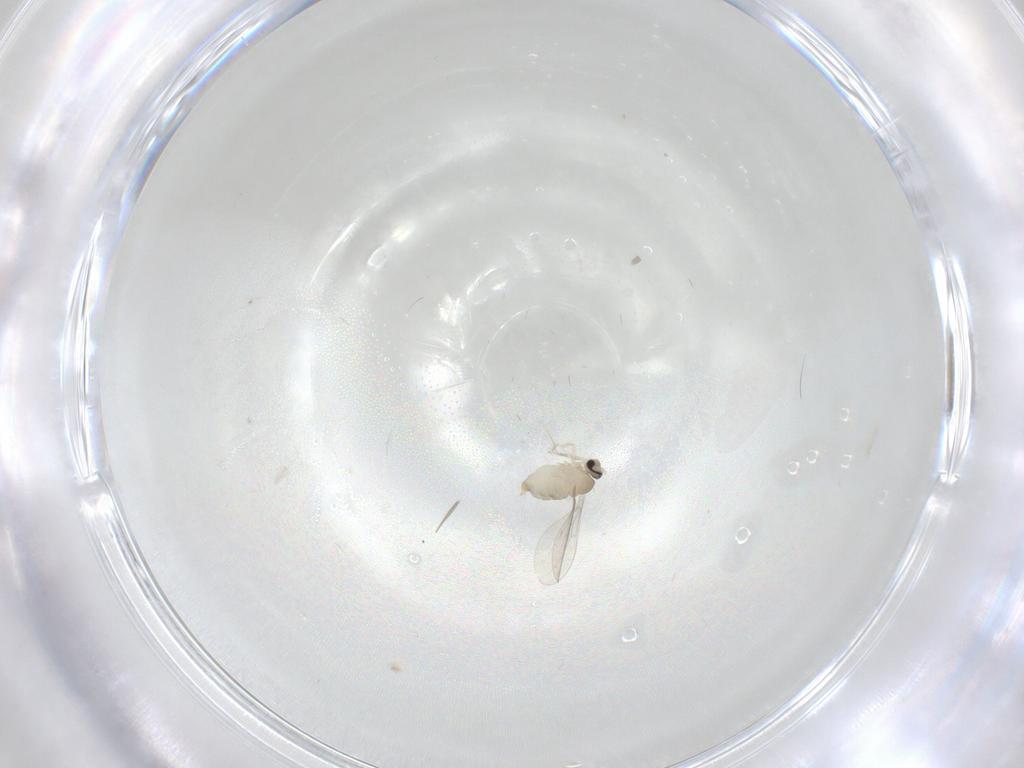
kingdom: Animalia
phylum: Arthropoda
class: Insecta
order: Diptera
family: Cecidomyiidae
